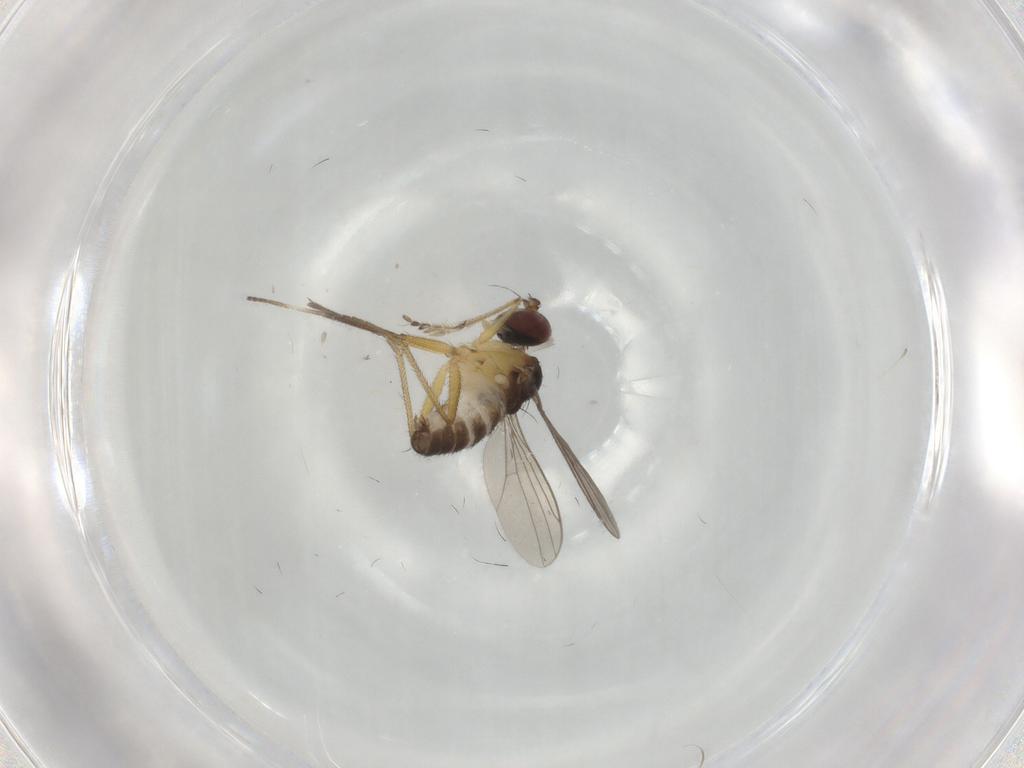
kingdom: Animalia
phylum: Arthropoda
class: Insecta
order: Diptera
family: Dolichopodidae
